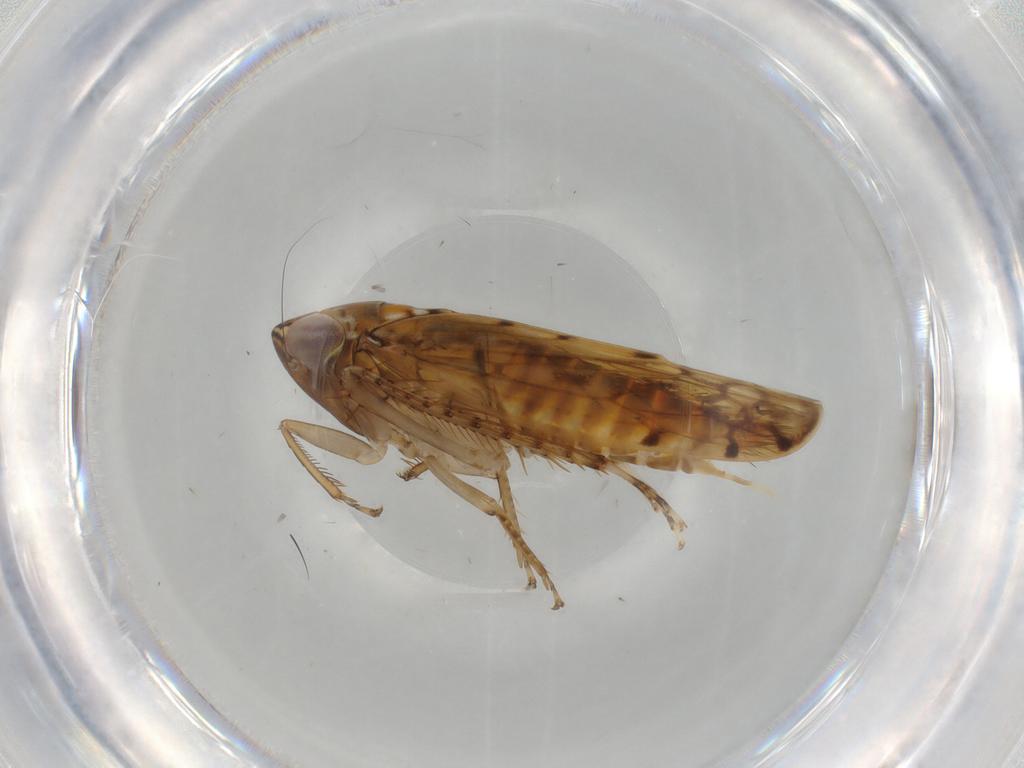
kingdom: Animalia
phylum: Arthropoda
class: Insecta
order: Hemiptera
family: Cicadellidae
